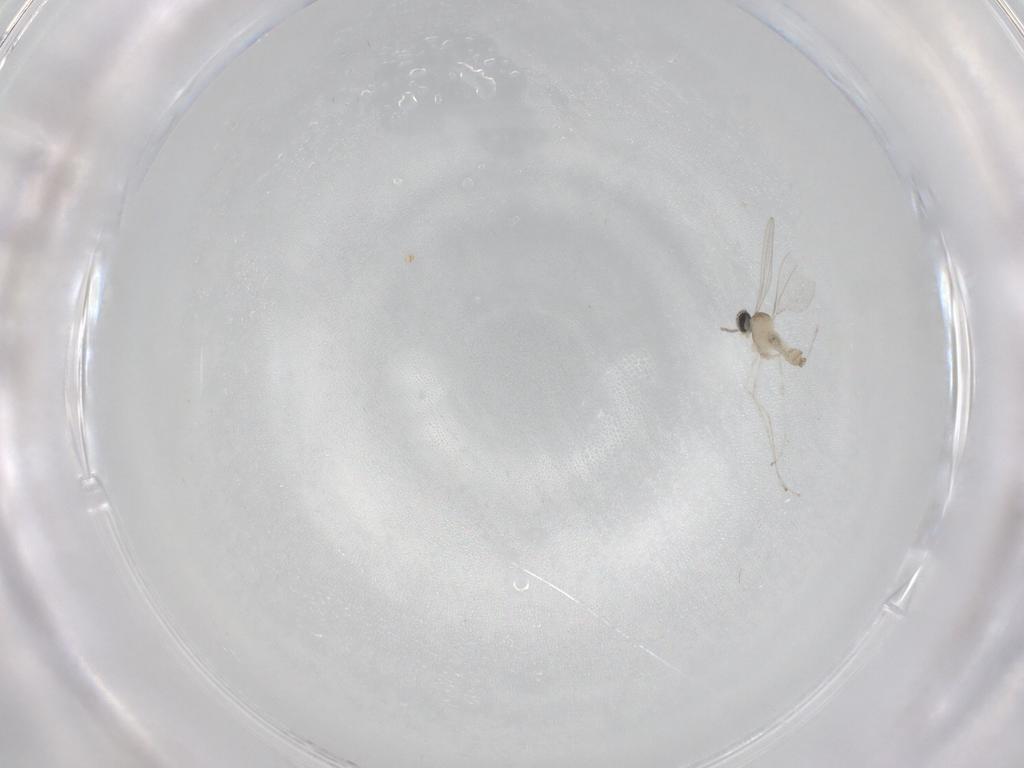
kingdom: Animalia
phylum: Arthropoda
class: Insecta
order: Diptera
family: Cecidomyiidae
